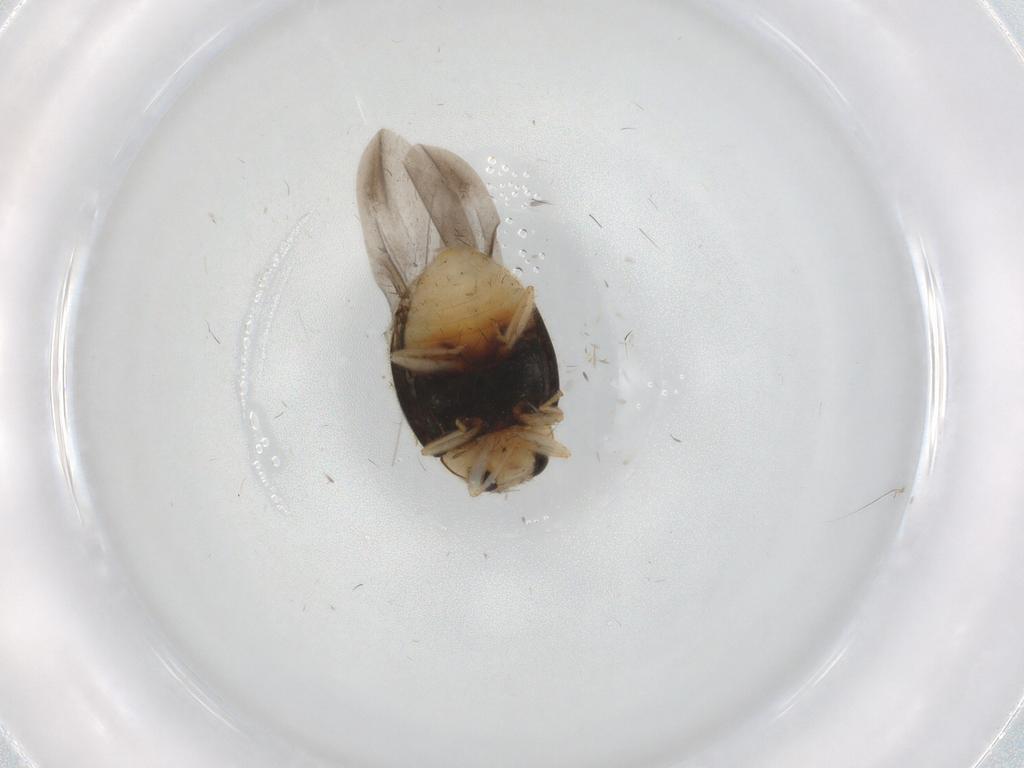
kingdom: Animalia
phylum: Arthropoda
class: Insecta
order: Coleoptera
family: Coccinellidae
